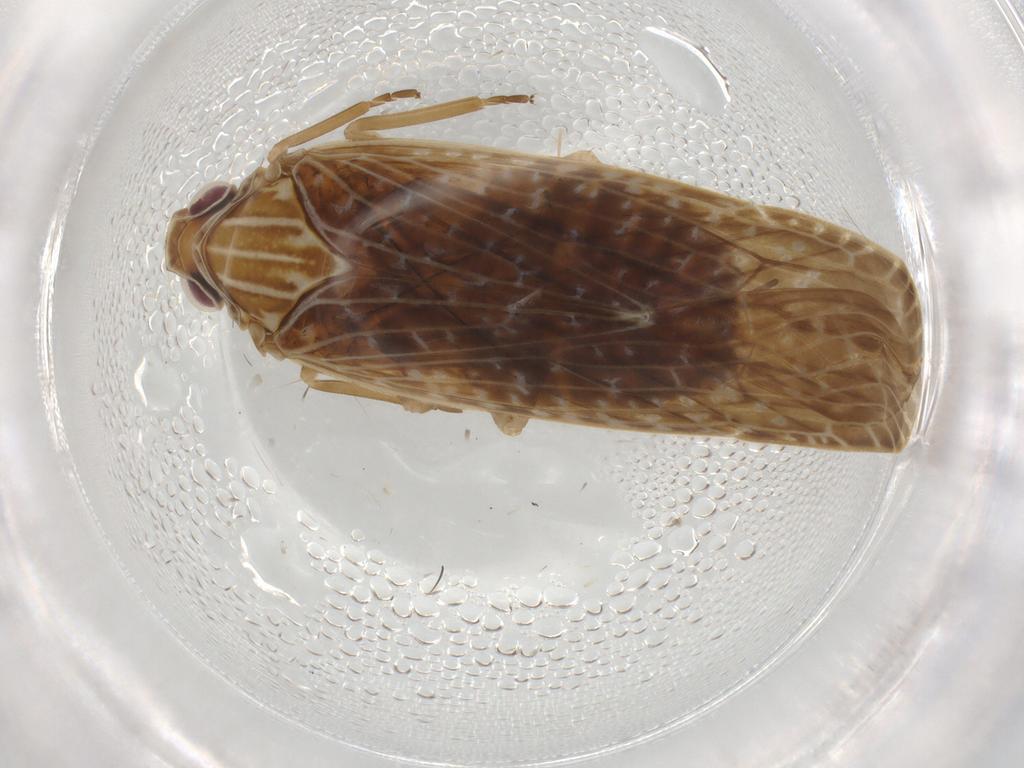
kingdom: Animalia
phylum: Arthropoda
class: Insecta
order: Hemiptera
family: Achilidae
